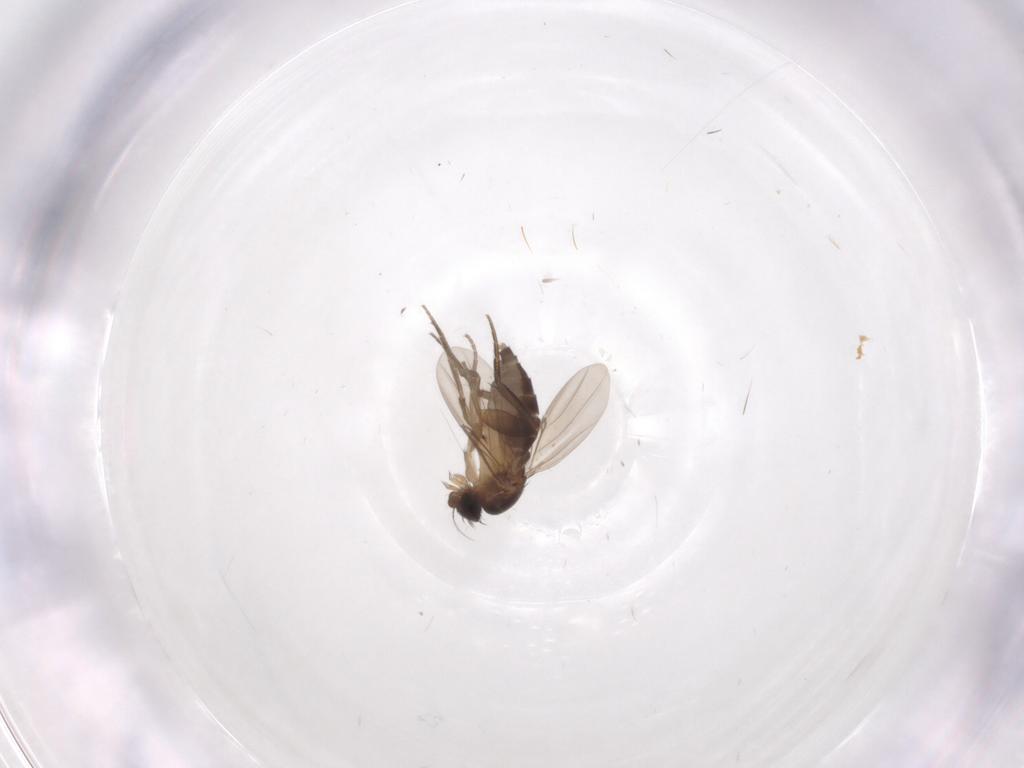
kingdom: Animalia
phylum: Arthropoda
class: Insecta
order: Diptera
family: Phoridae
